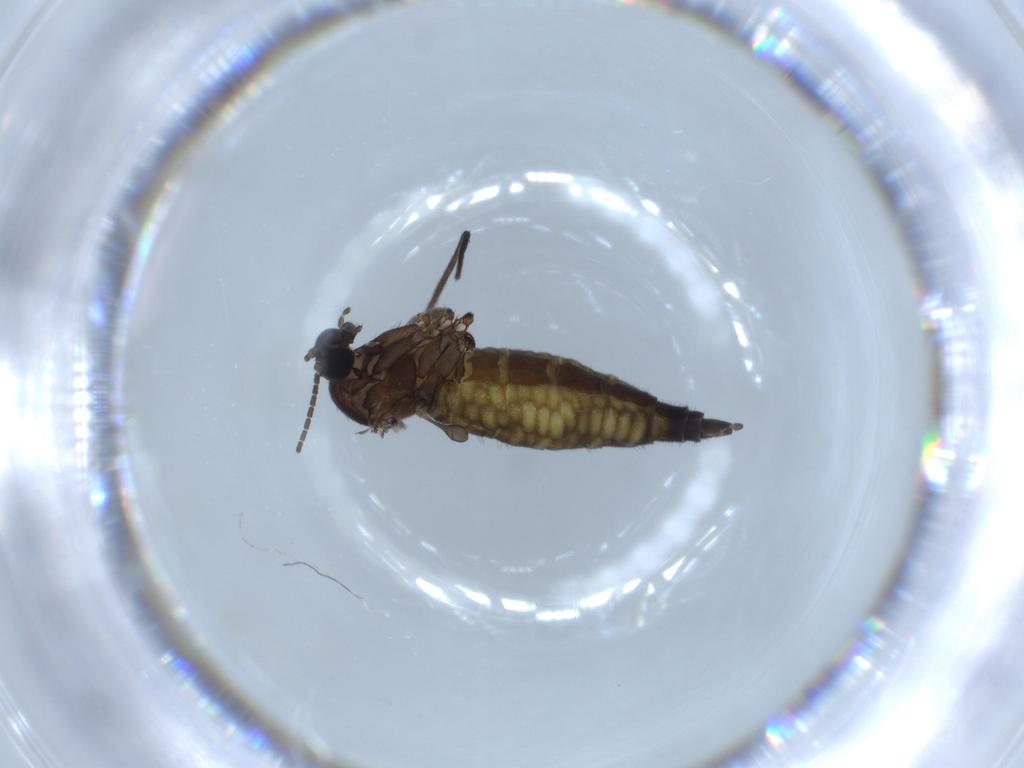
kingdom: Animalia
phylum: Arthropoda
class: Insecta
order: Diptera
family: Sciaridae
